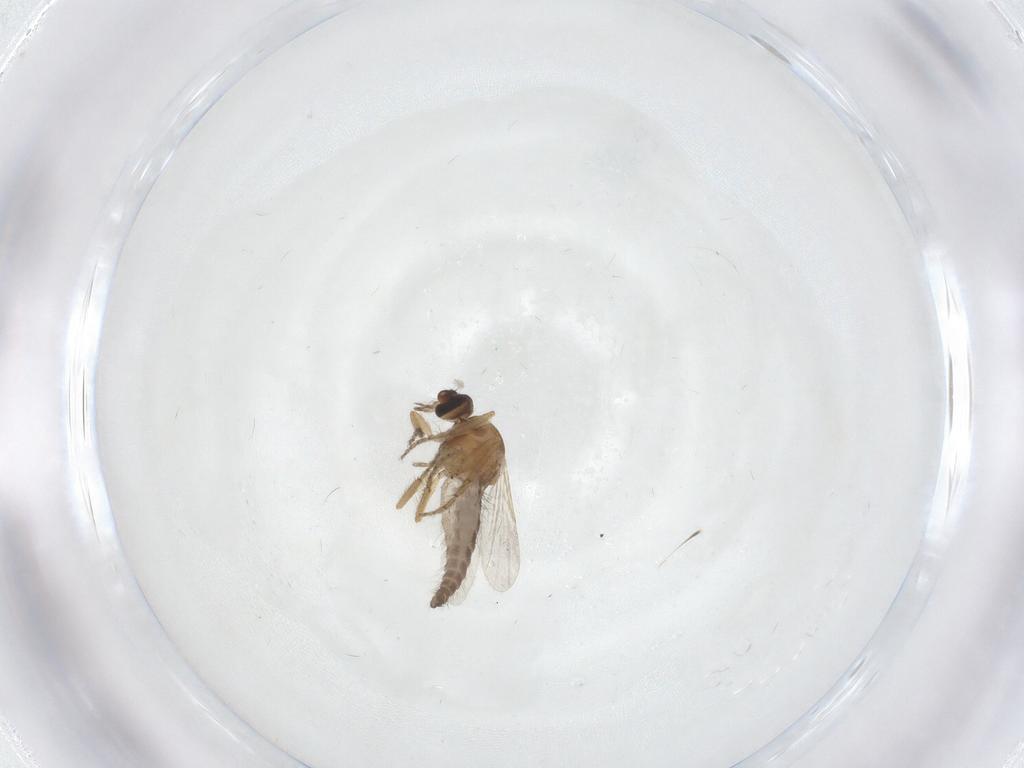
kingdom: Animalia
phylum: Arthropoda
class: Insecta
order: Diptera
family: Ceratopogonidae
